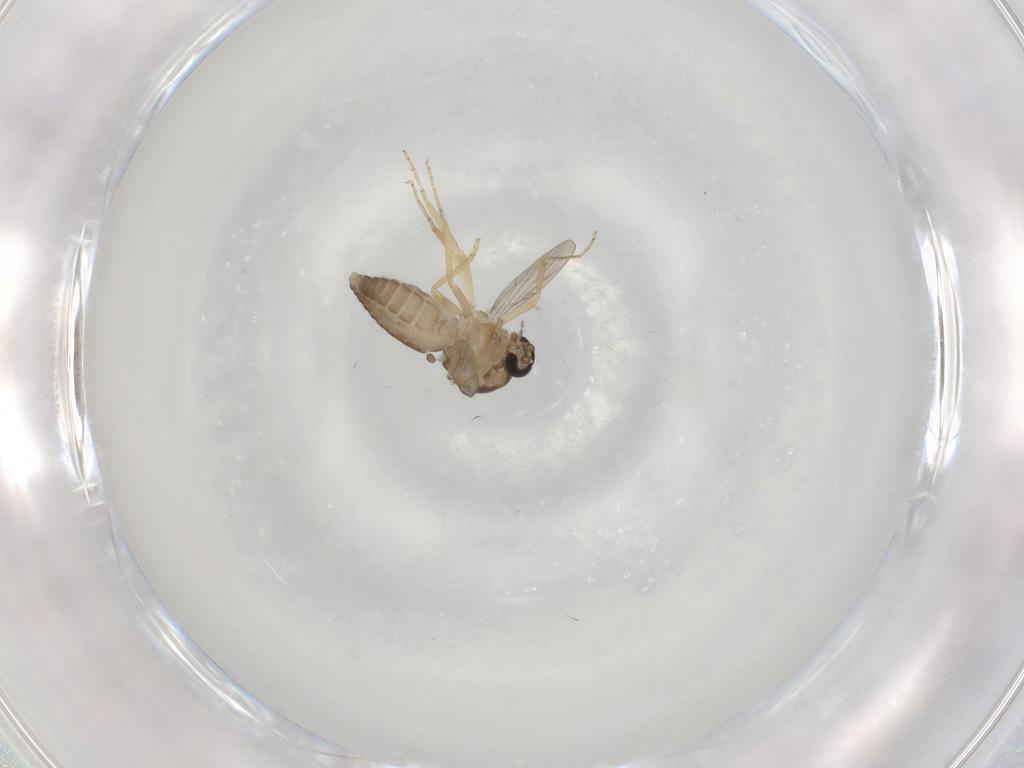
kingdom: Animalia
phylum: Arthropoda
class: Insecta
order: Diptera
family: Ceratopogonidae
